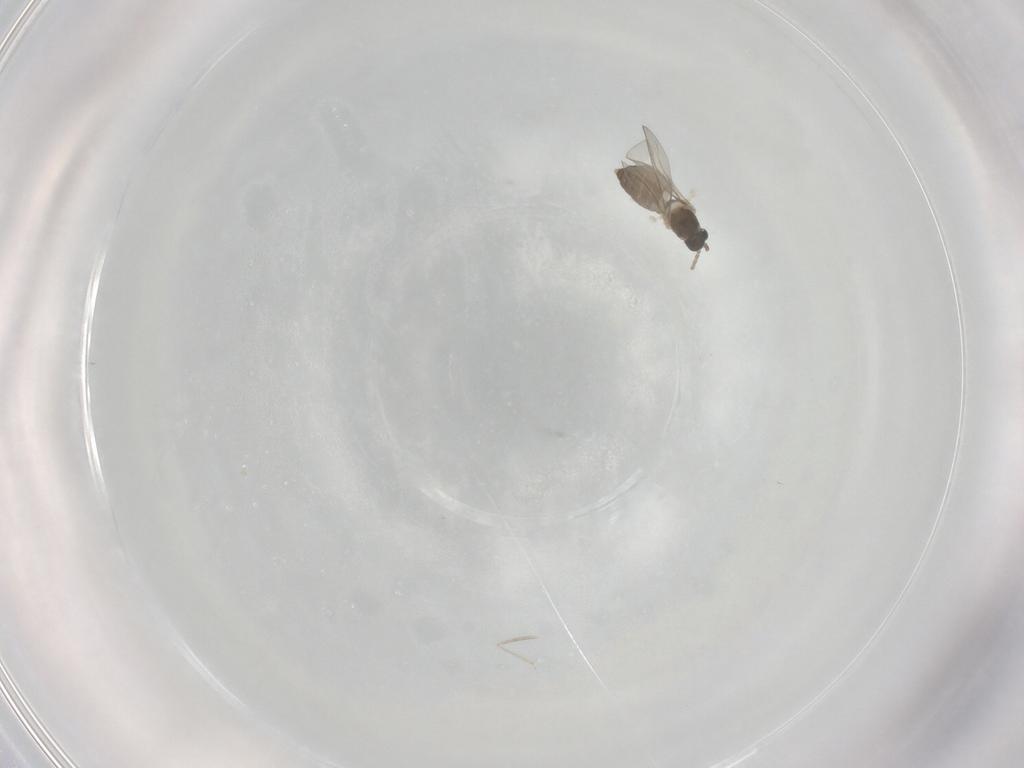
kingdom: Animalia
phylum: Arthropoda
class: Insecta
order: Diptera
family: Cecidomyiidae
